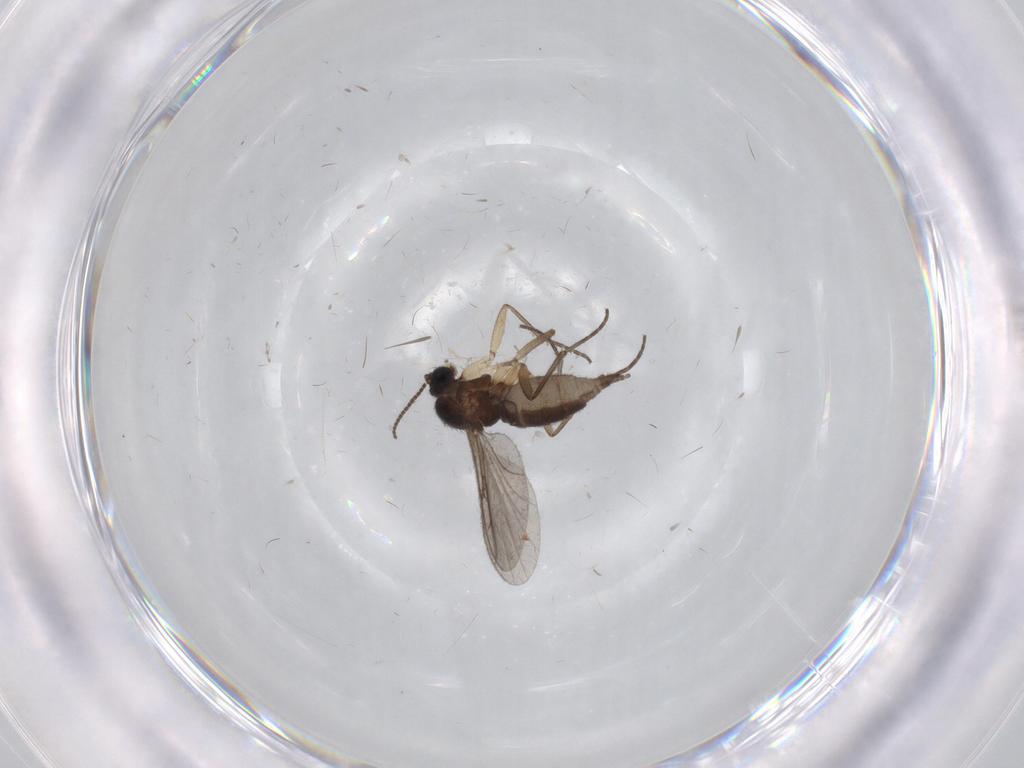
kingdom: Animalia
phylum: Arthropoda
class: Insecta
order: Diptera
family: Sciaridae
